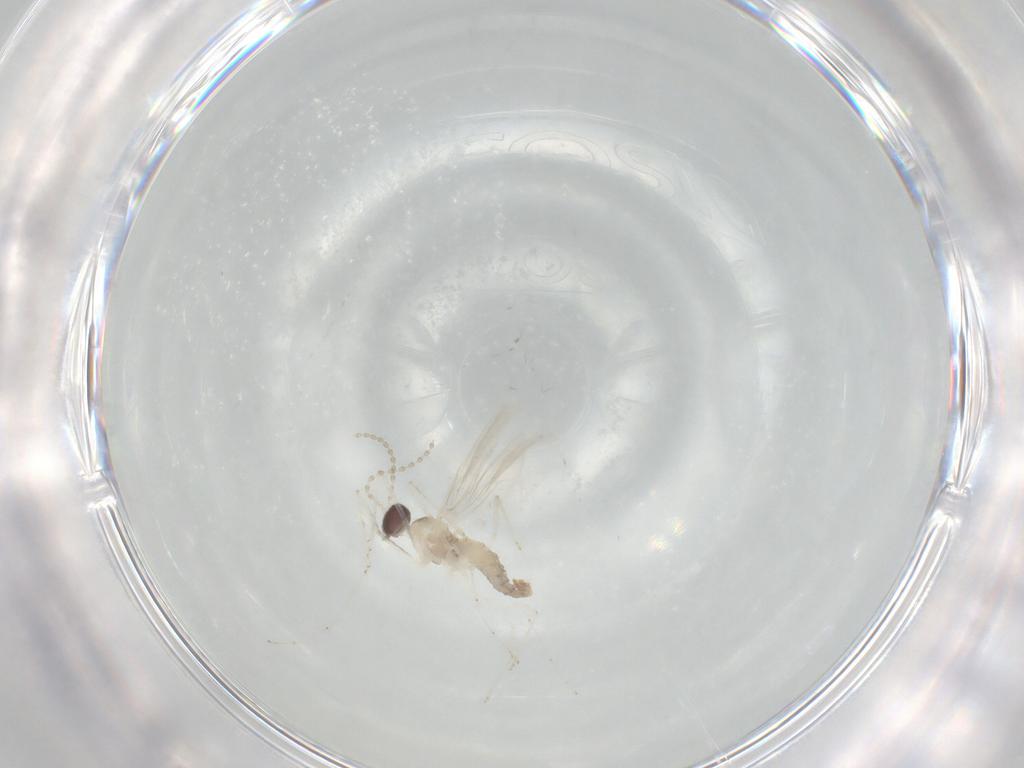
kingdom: Animalia
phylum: Arthropoda
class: Insecta
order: Diptera
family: Cecidomyiidae
